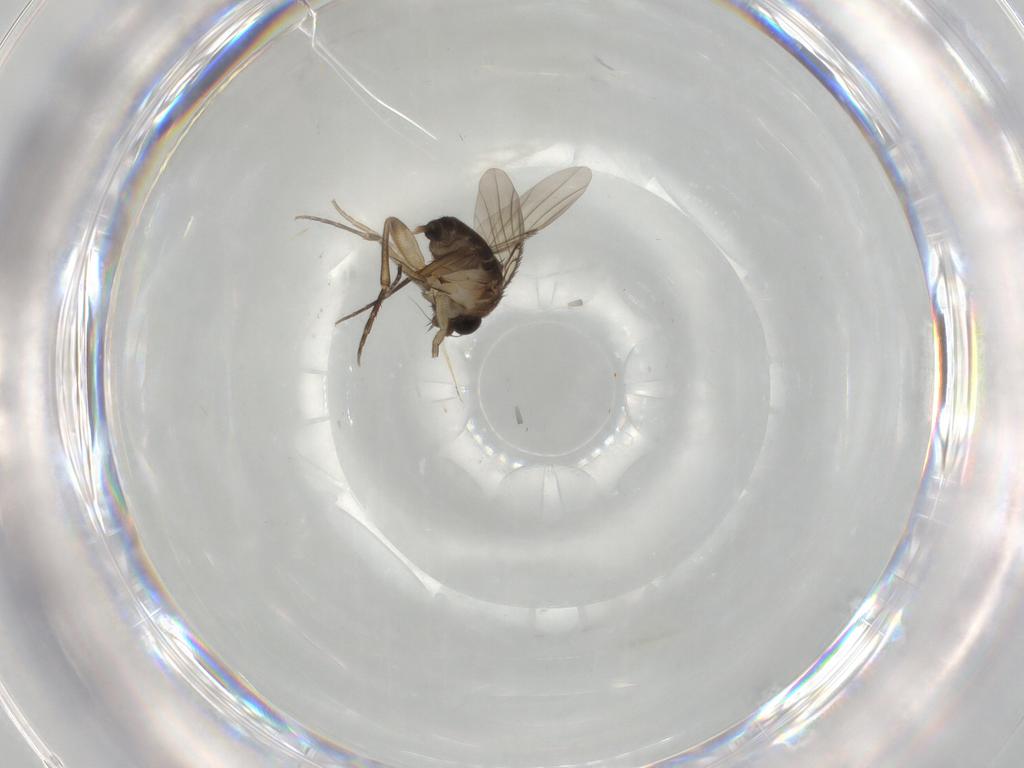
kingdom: Animalia
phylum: Arthropoda
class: Insecta
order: Diptera
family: Phoridae
